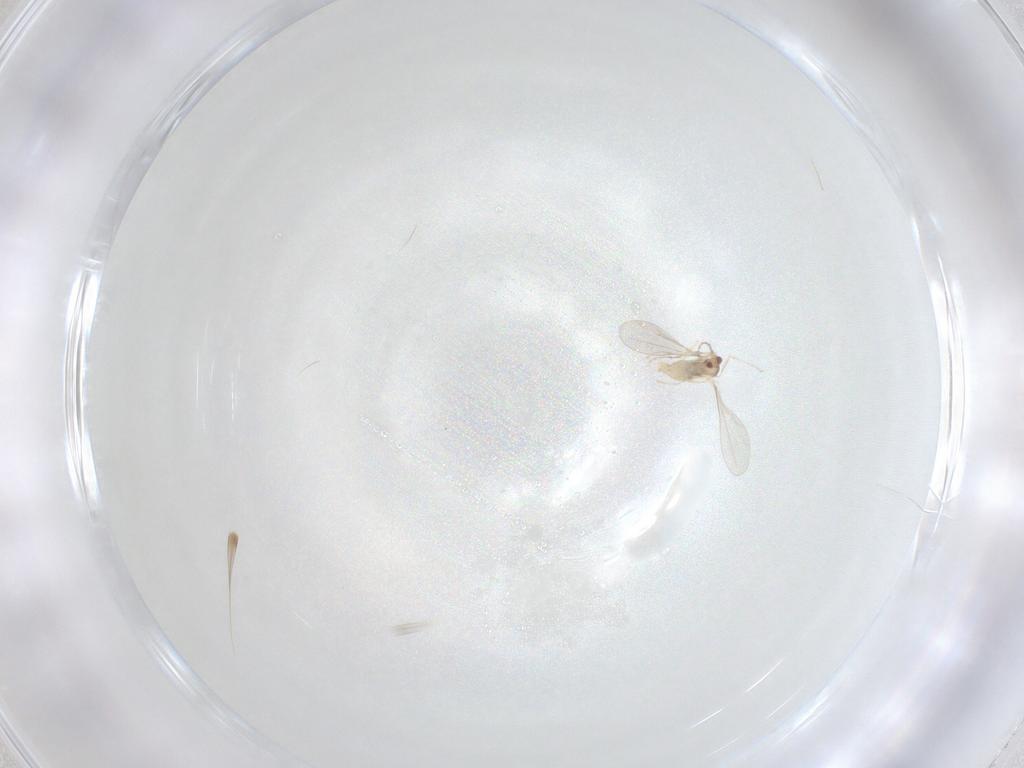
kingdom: Animalia
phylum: Arthropoda
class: Insecta
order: Diptera
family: Cecidomyiidae
